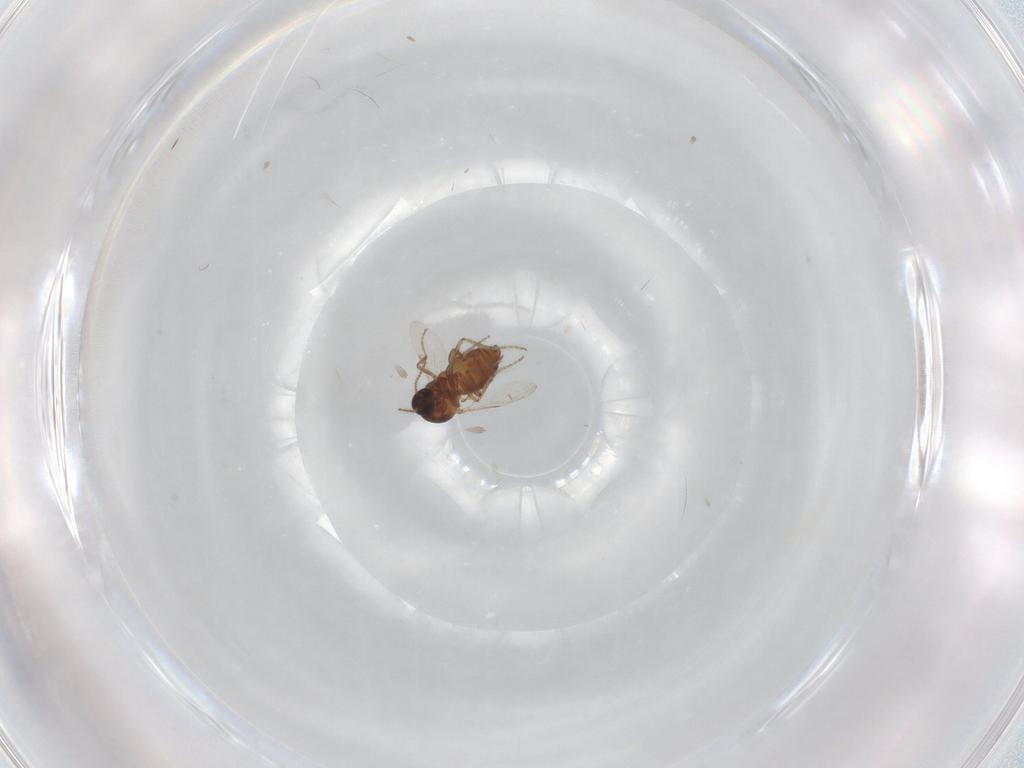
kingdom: Animalia
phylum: Arthropoda
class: Insecta
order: Diptera
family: Ceratopogonidae
